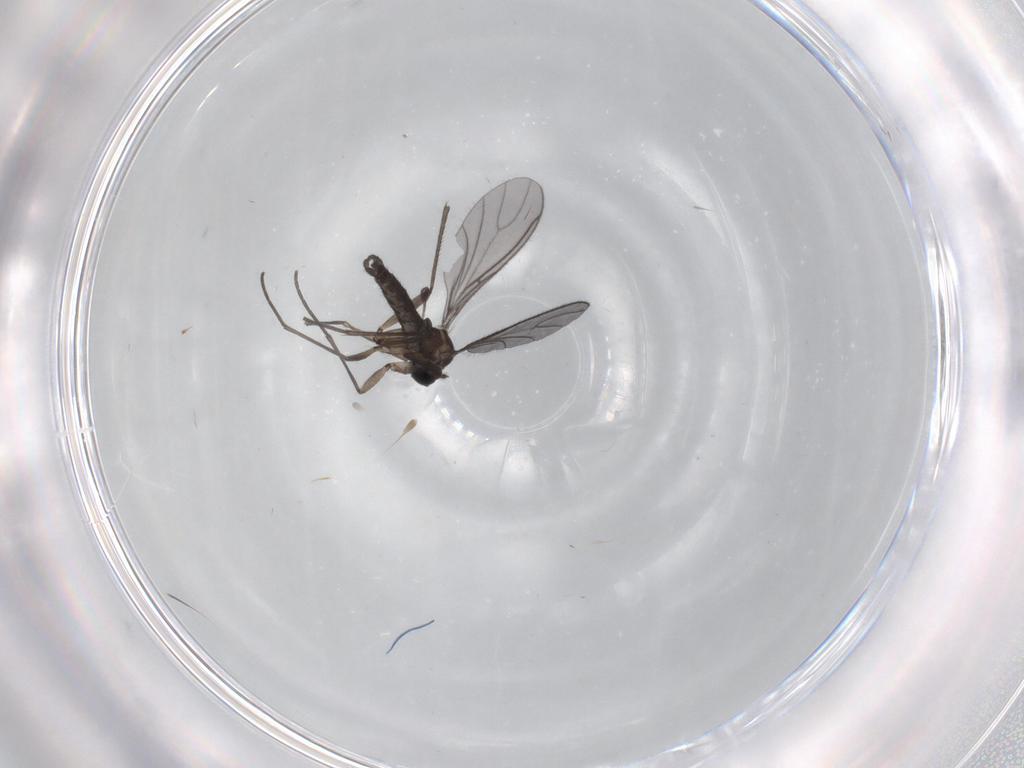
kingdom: Animalia
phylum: Arthropoda
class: Insecta
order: Diptera
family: Sciaridae
